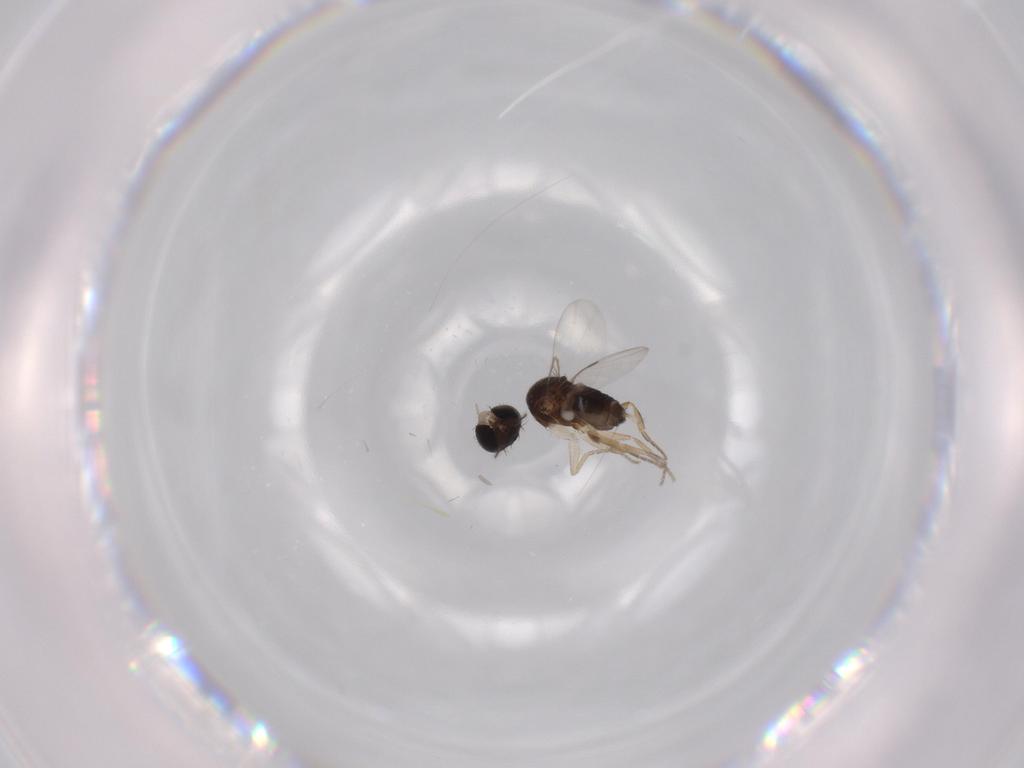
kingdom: Animalia
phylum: Arthropoda
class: Insecta
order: Diptera
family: Phoridae
